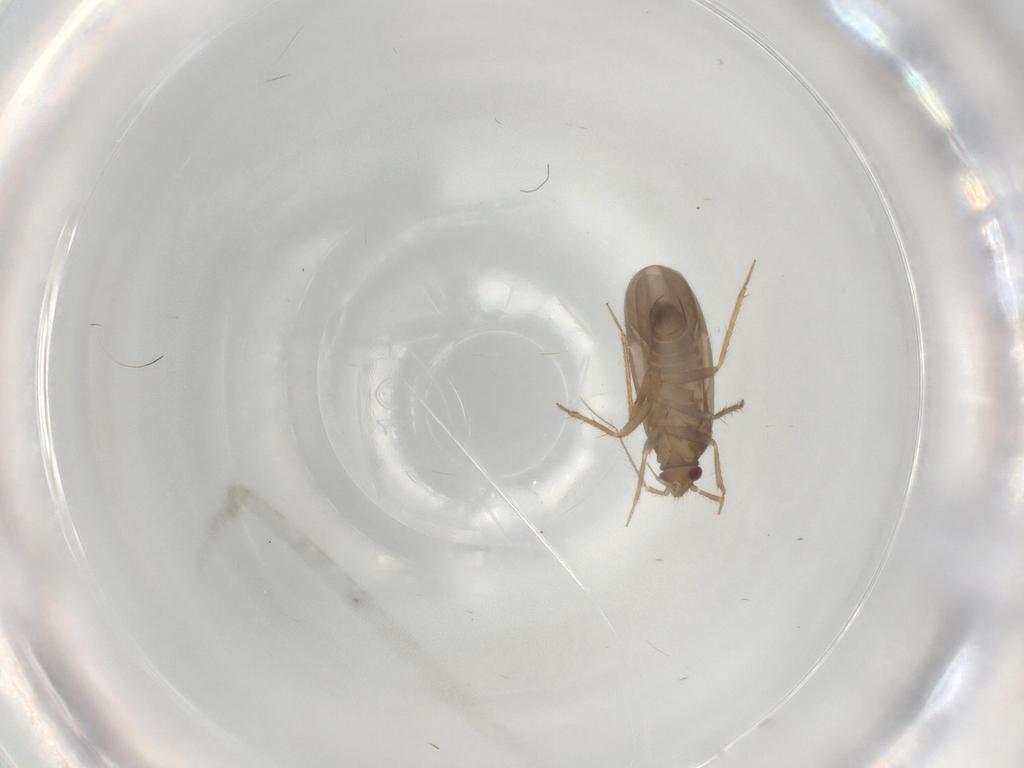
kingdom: Animalia
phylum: Arthropoda
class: Insecta
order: Hemiptera
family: Ceratocombidae
